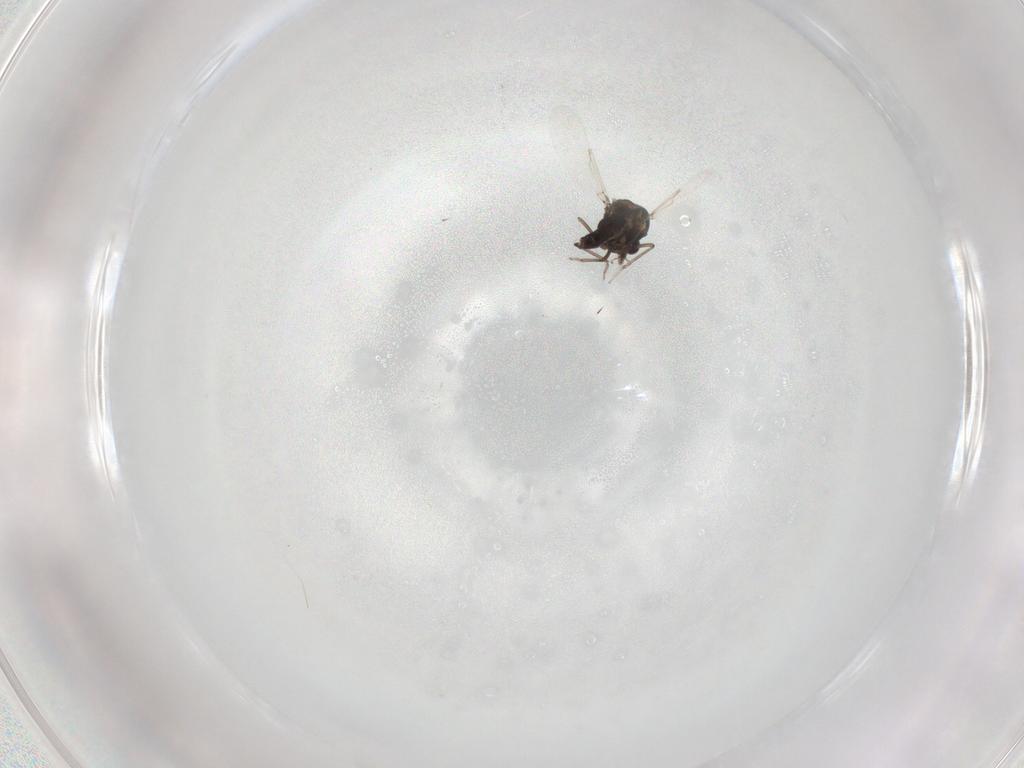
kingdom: Animalia
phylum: Arthropoda
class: Insecta
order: Diptera
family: Ceratopogonidae
